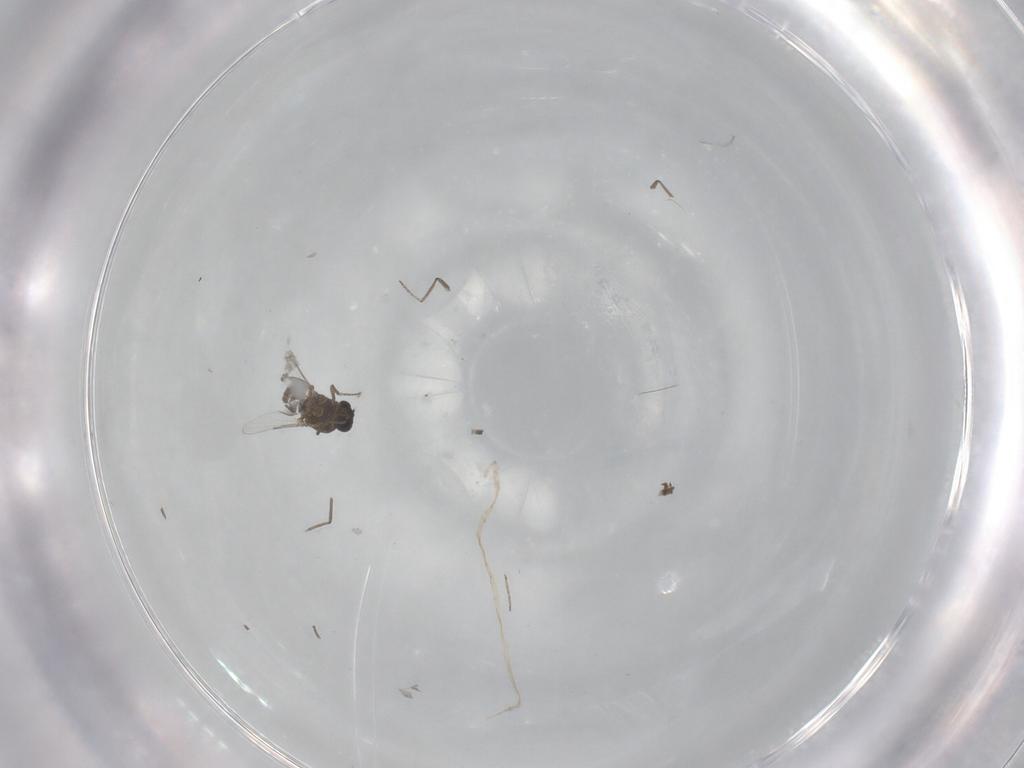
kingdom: Animalia
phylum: Arthropoda
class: Insecta
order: Diptera
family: Ceratopogonidae
